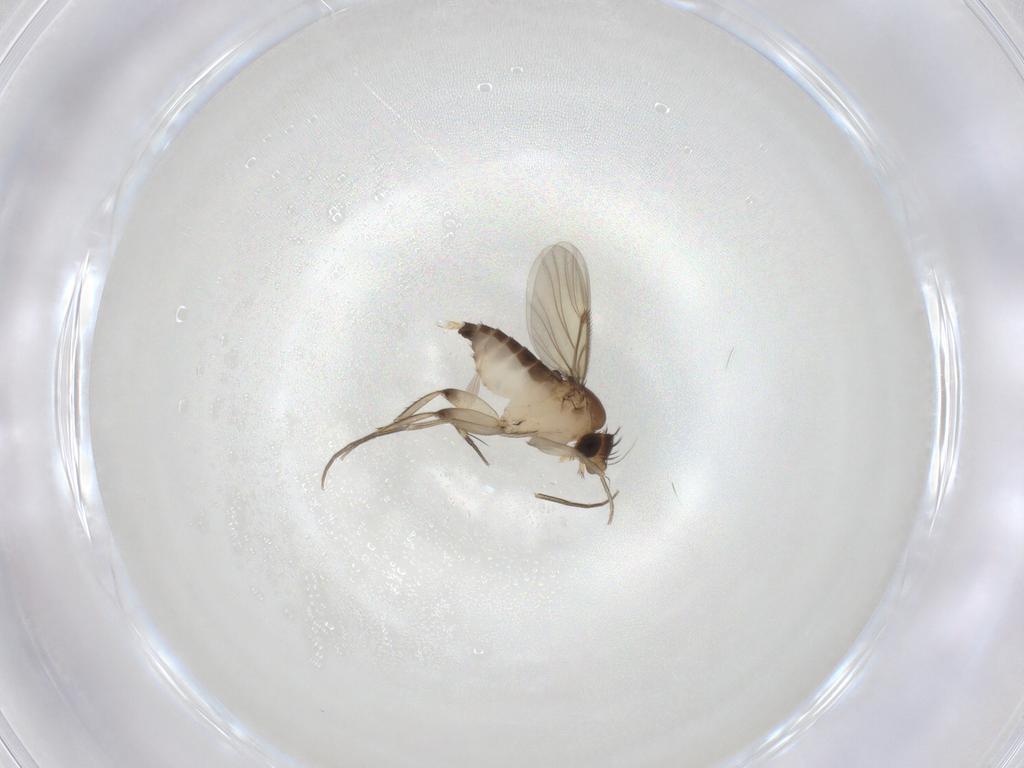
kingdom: Animalia
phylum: Arthropoda
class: Insecta
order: Diptera
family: Phoridae
